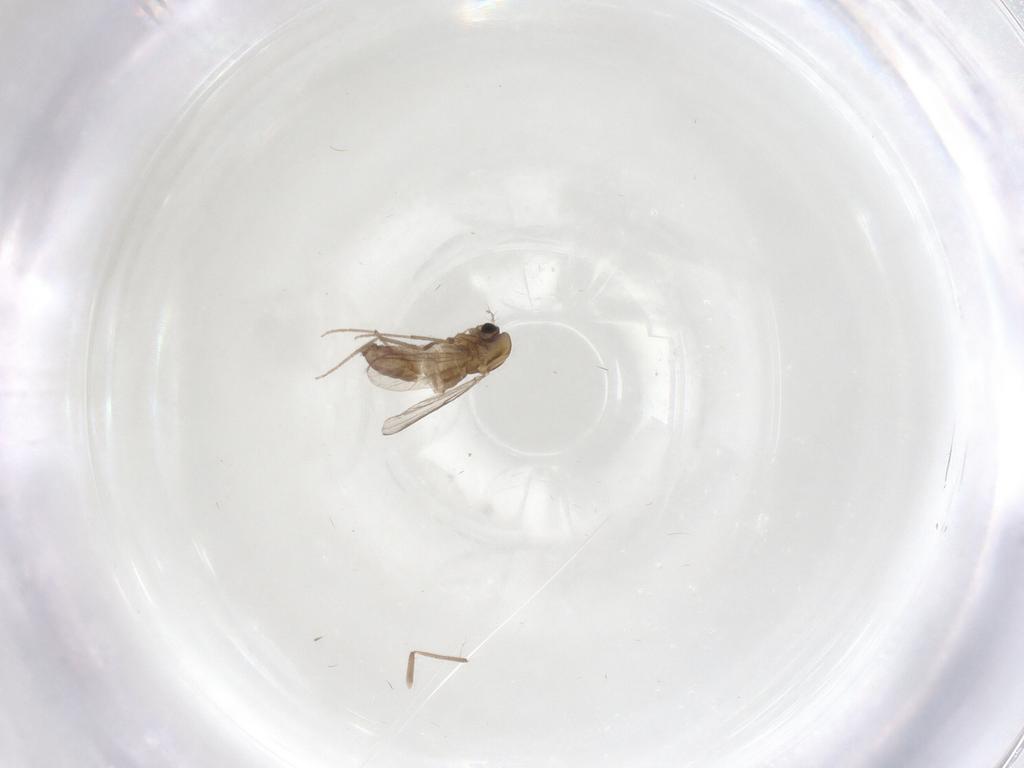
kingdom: Animalia
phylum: Arthropoda
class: Insecta
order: Diptera
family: Chironomidae
